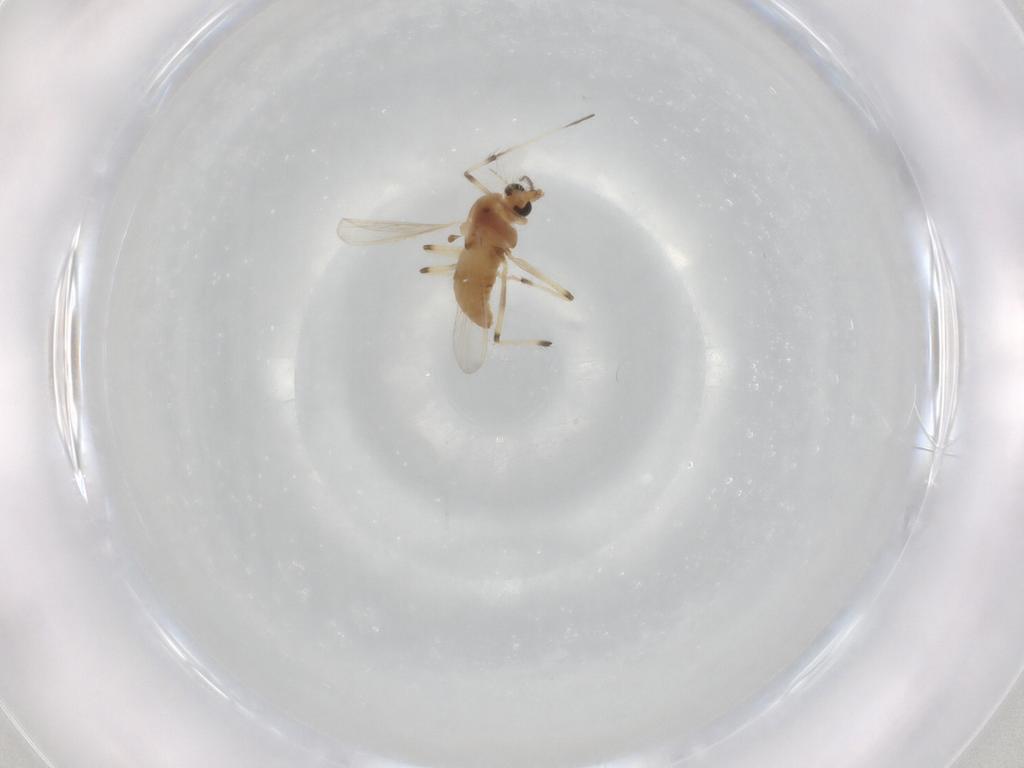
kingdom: Animalia
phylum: Arthropoda
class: Insecta
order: Diptera
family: Chironomidae
